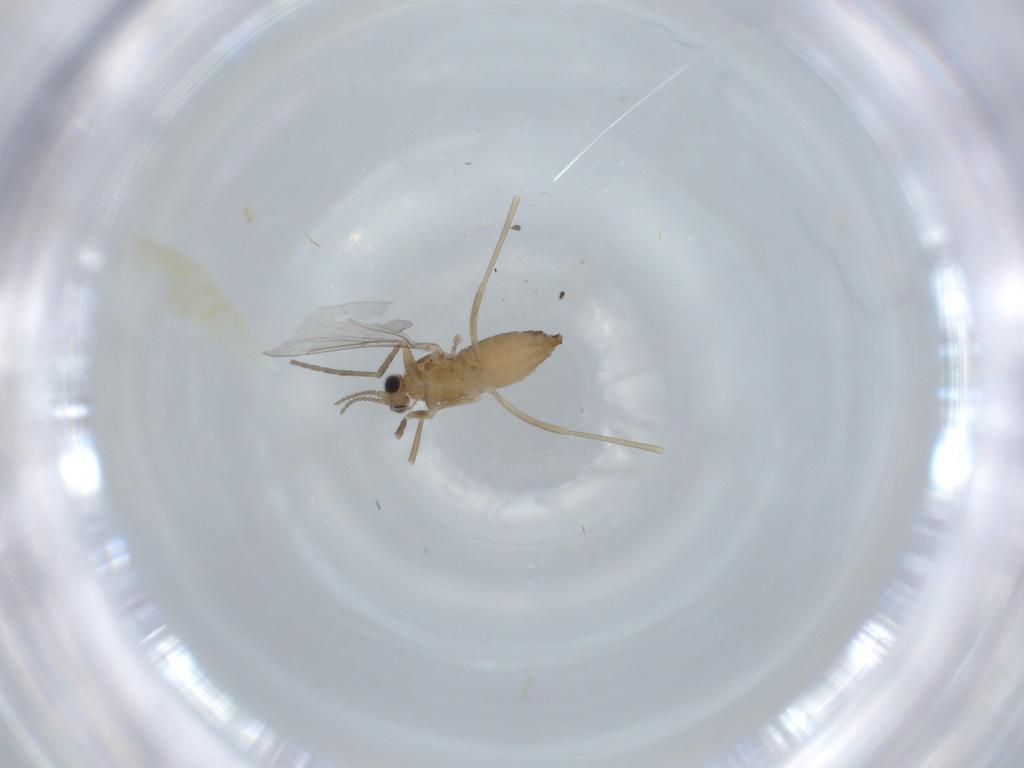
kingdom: Animalia
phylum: Arthropoda
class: Insecta
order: Diptera
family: Cecidomyiidae
